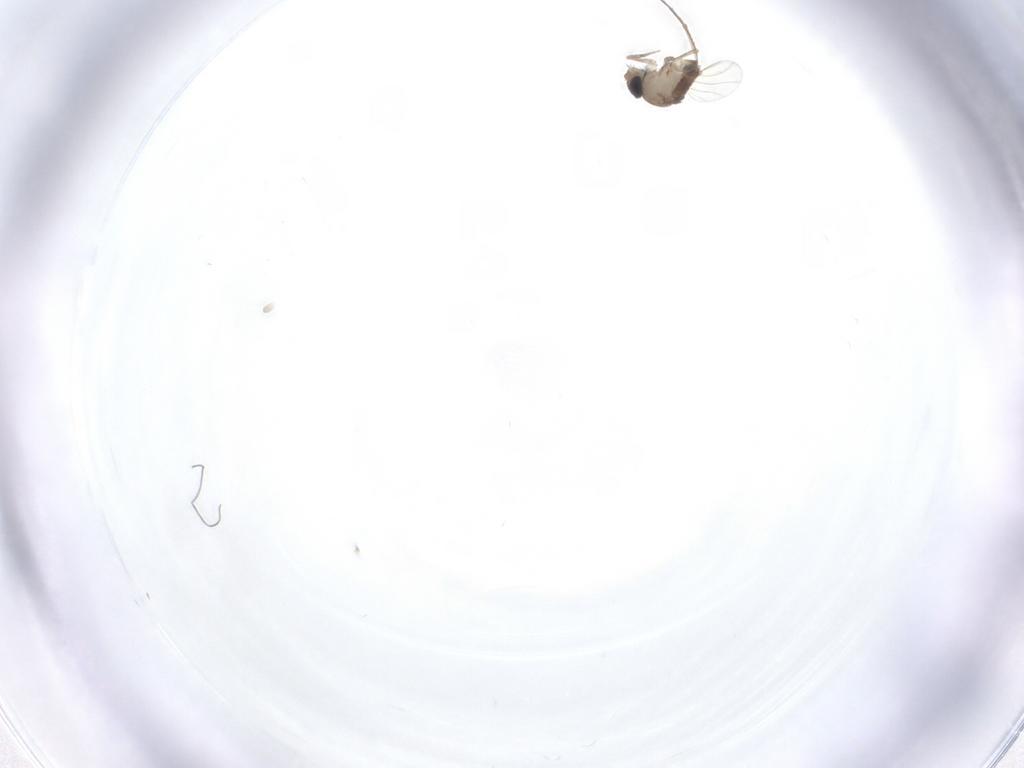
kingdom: Animalia
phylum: Arthropoda
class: Insecta
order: Diptera
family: Phoridae
